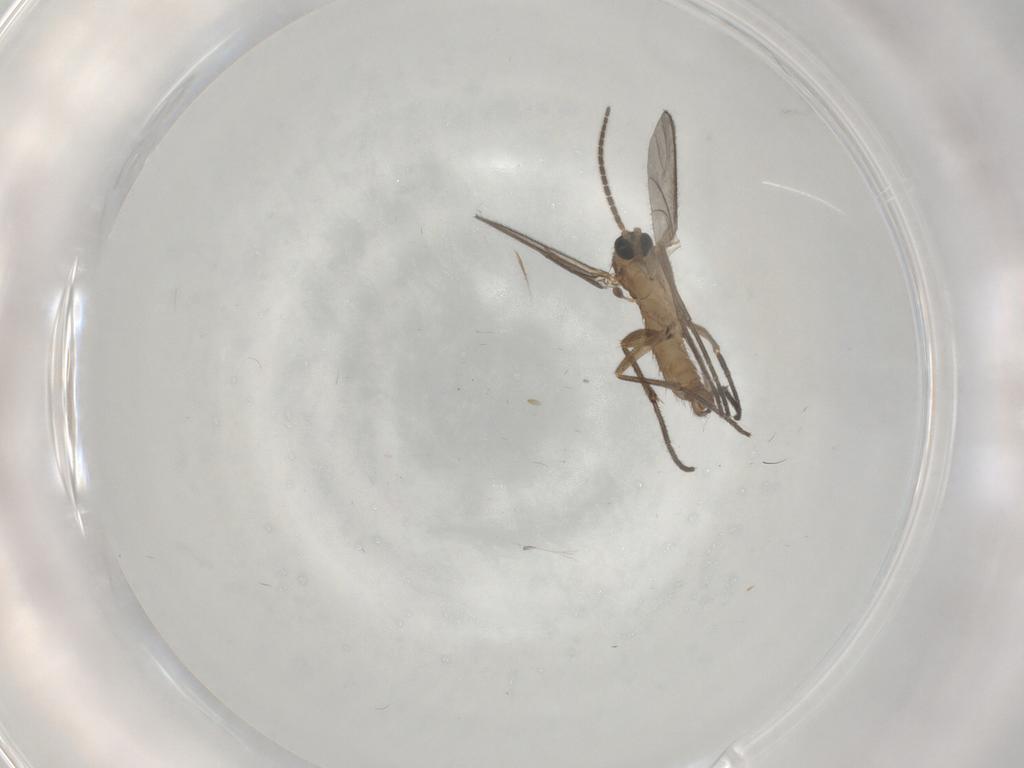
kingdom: Animalia
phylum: Arthropoda
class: Insecta
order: Diptera
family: Sciaridae
